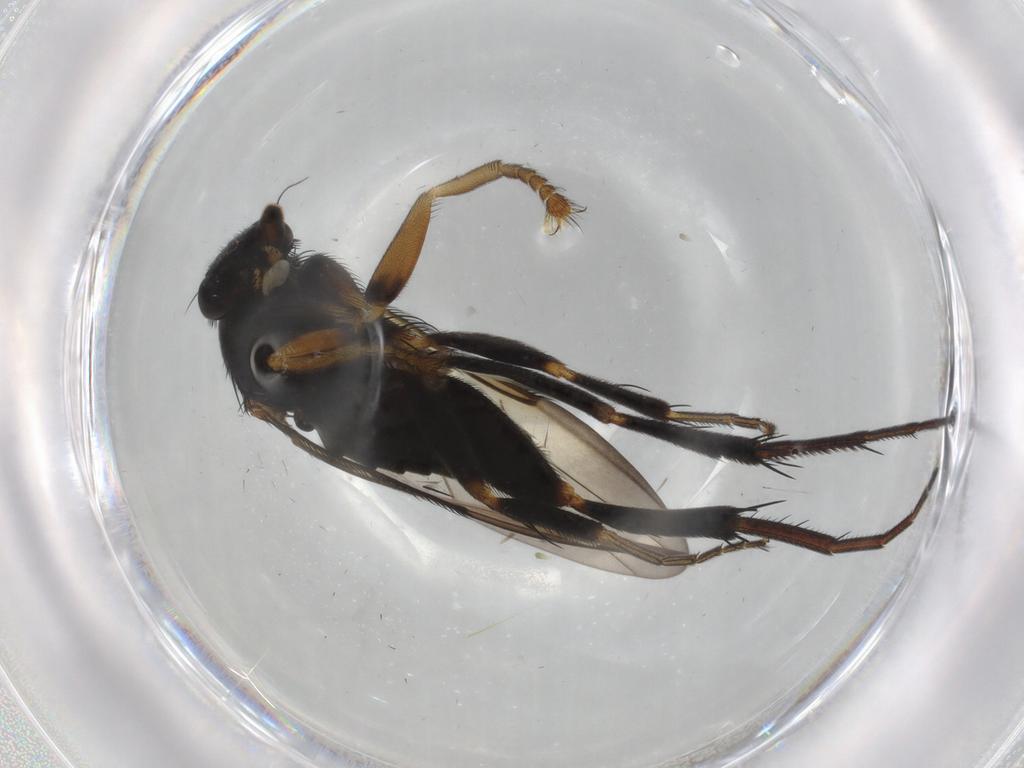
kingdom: Animalia
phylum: Arthropoda
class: Insecta
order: Diptera
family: Phoridae
